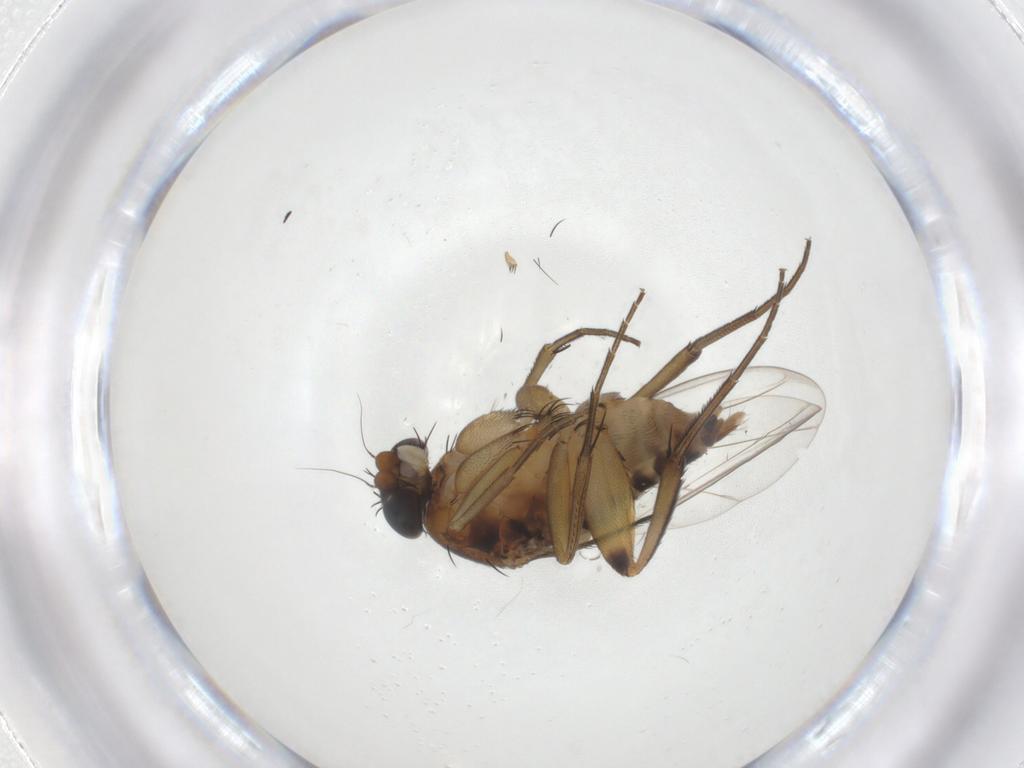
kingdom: Animalia
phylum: Arthropoda
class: Insecta
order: Diptera
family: Phoridae
